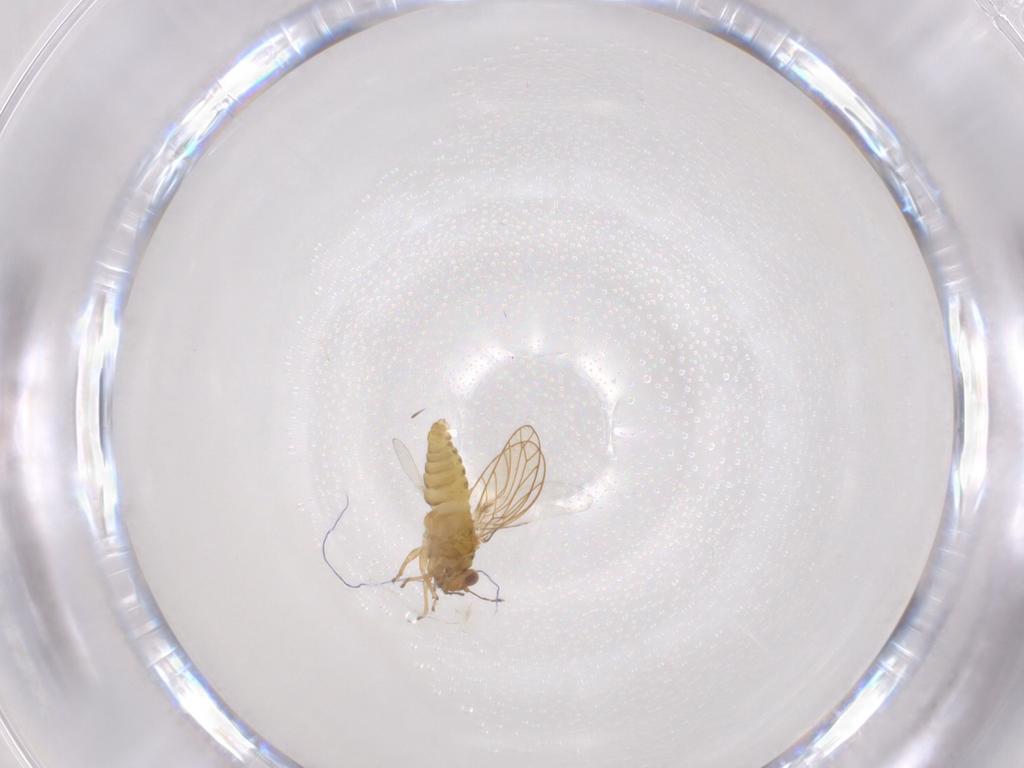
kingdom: Animalia
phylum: Arthropoda
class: Insecta
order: Hemiptera
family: Psylloidea_incertae_sedis
